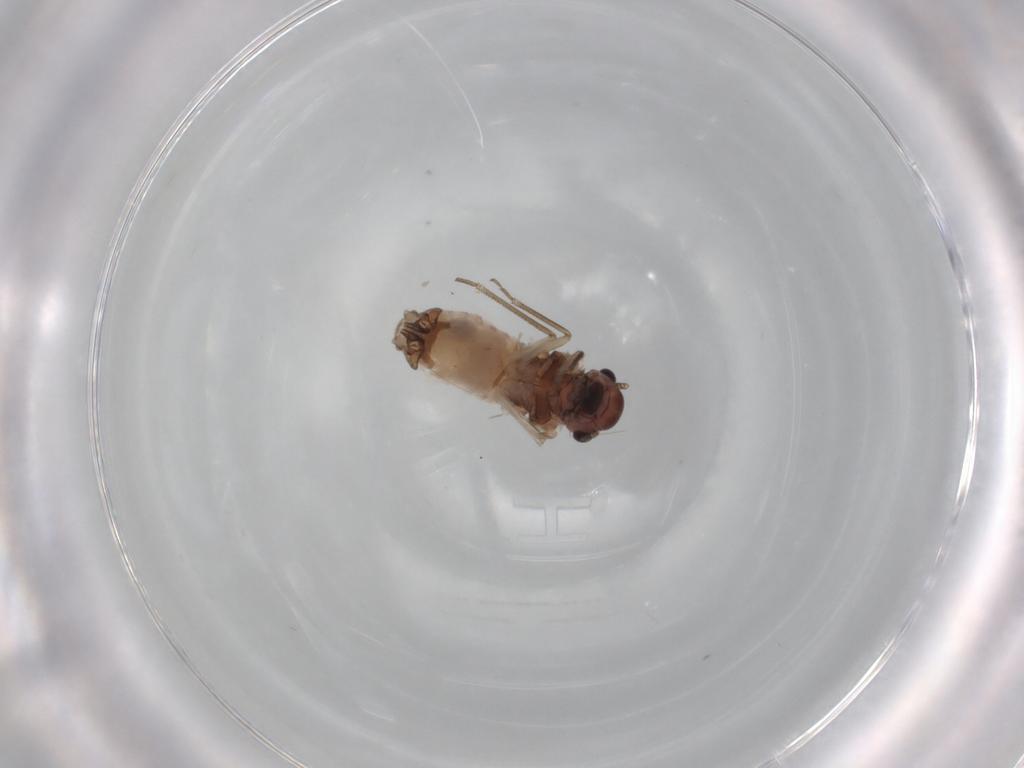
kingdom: Animalia
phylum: Arthropoda
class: Insecta
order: Psocodea
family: Peripsocidae
